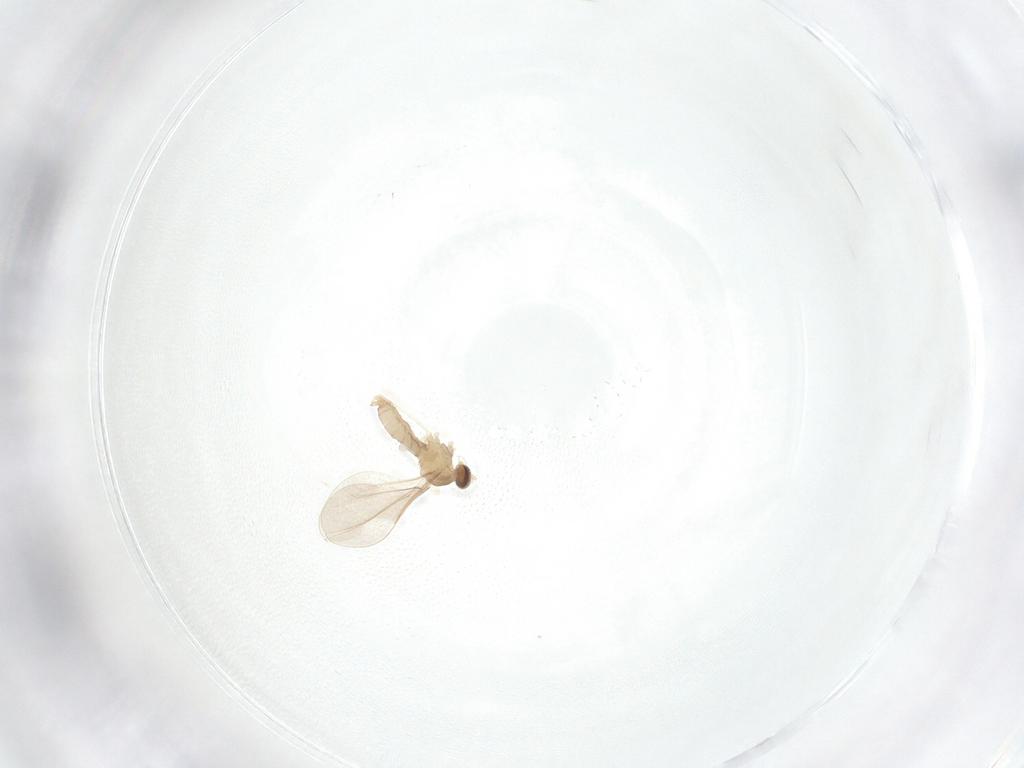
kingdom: Animalia
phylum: Arthropoda
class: Insecta
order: Diptera
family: Cecidomyiidae
